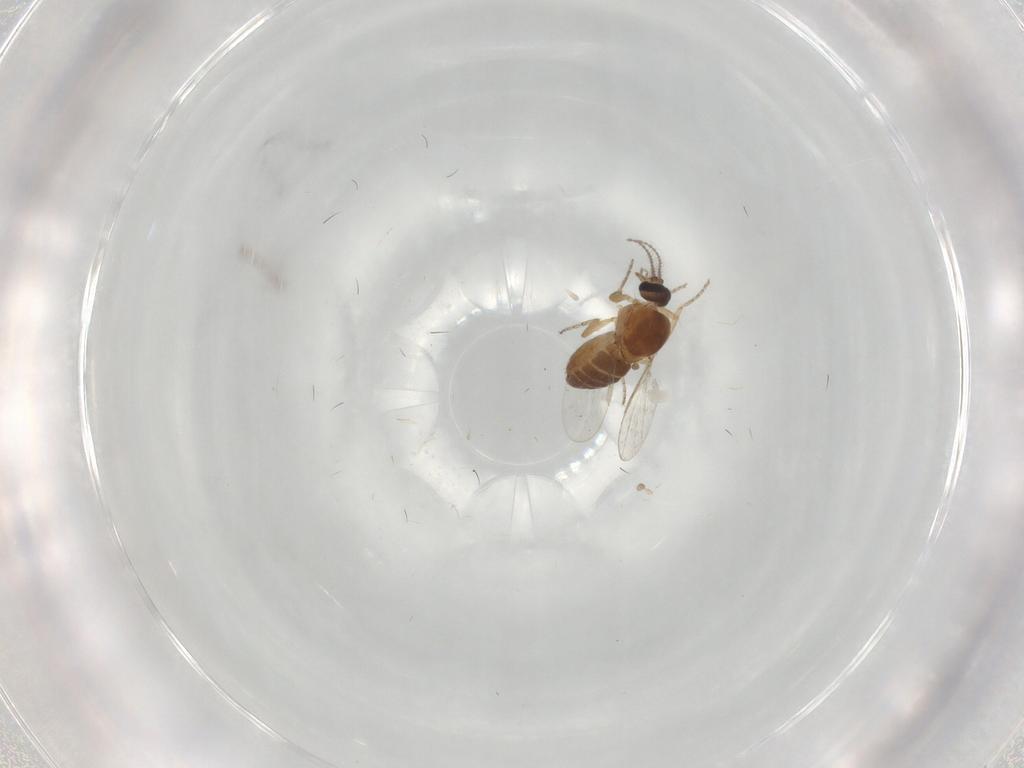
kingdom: Animalia
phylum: Arthropoda
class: Insecta
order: Diptera
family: Ceratopogonidae
